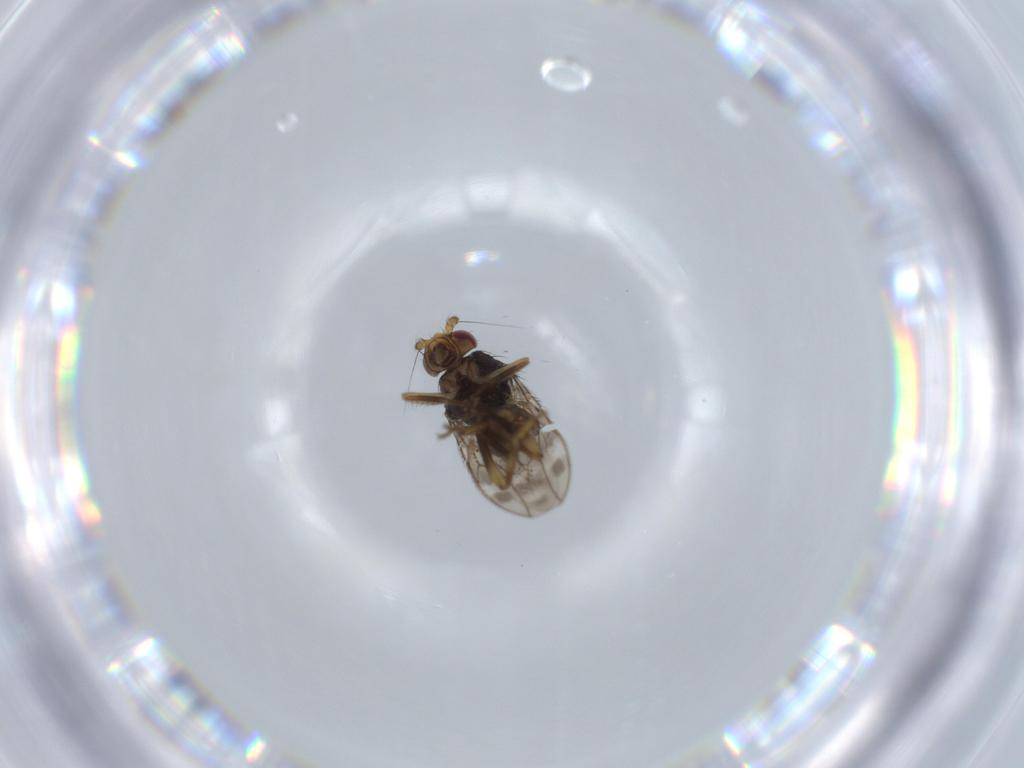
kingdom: Animalia
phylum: Arthropoda
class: Insecta
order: Diptera
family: Sphaeroceridae
